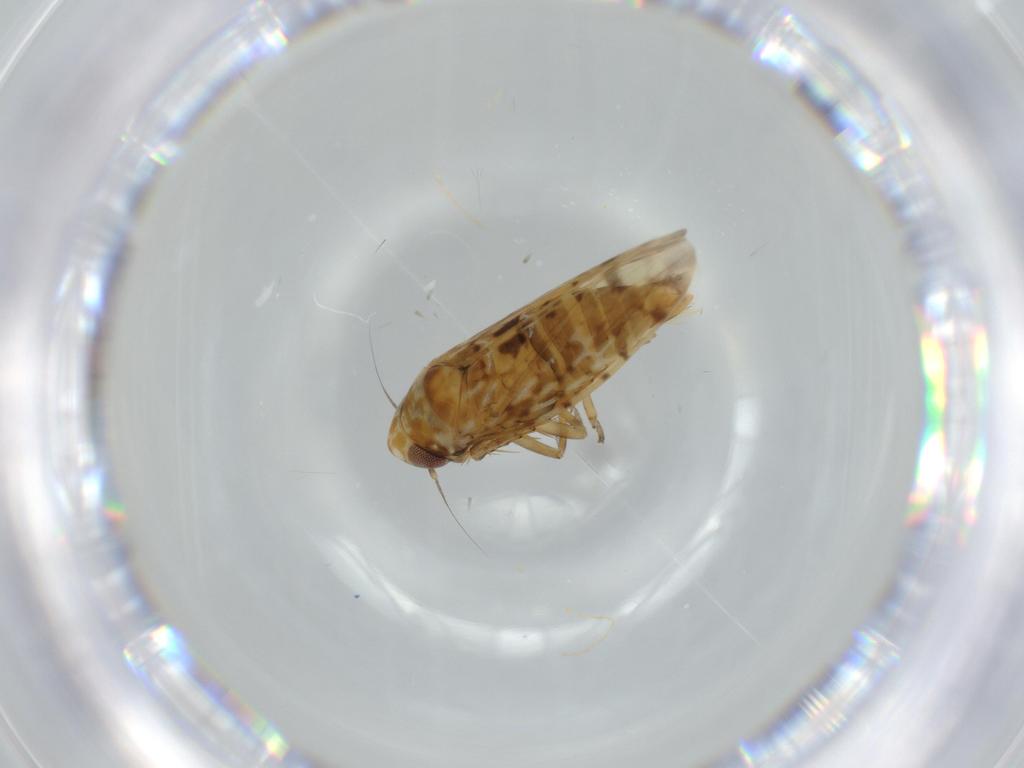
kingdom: Animalia
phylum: Arthropoda
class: Insecta
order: Hemiptera
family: Cicadellidae
